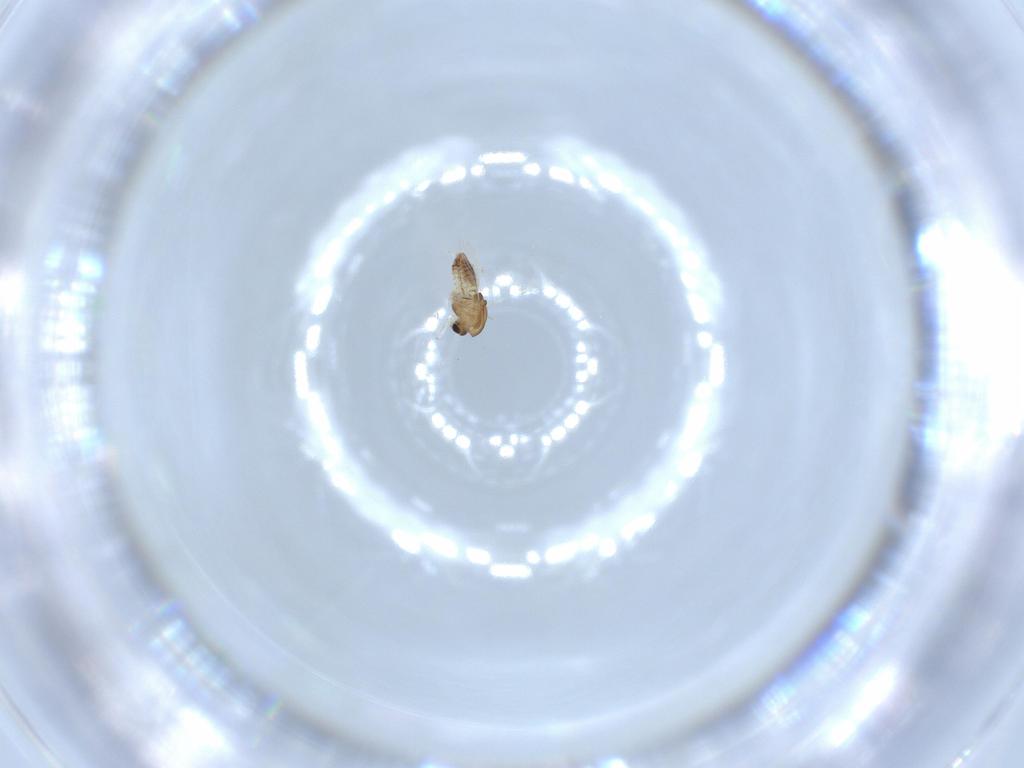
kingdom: Animalia
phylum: Arthropoda
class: Insecta
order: Diptera
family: Chironomidae
